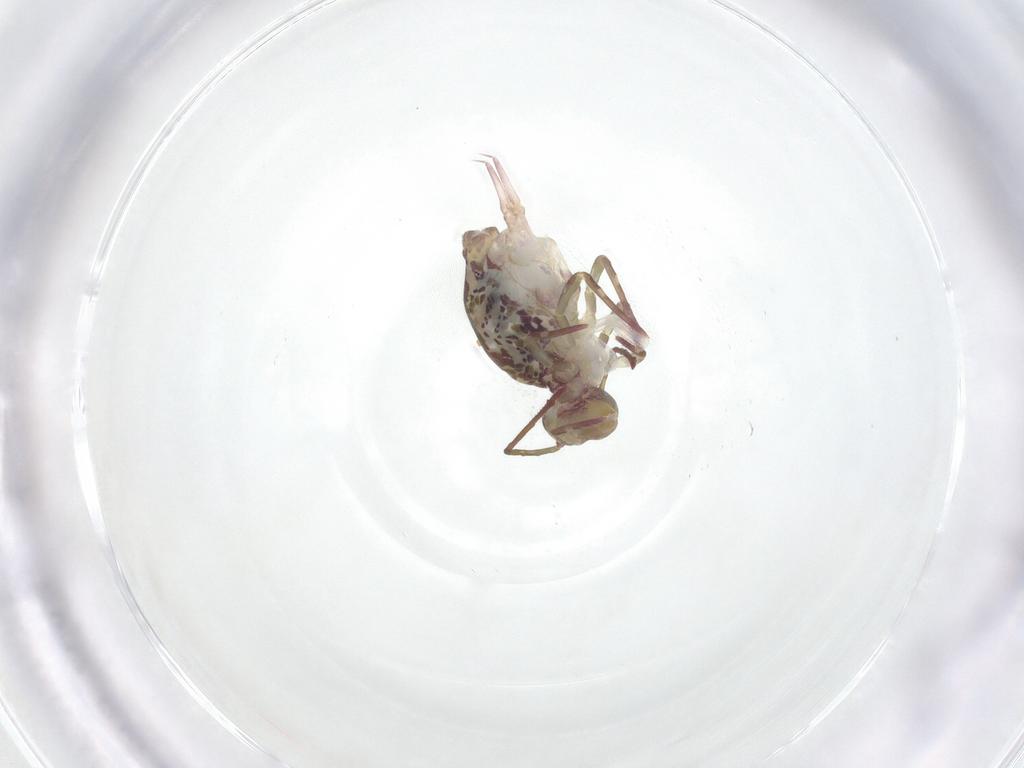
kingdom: Animalia
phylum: Arthropoda
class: Collembola
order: Symphypleona
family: Dicyrtomidae
